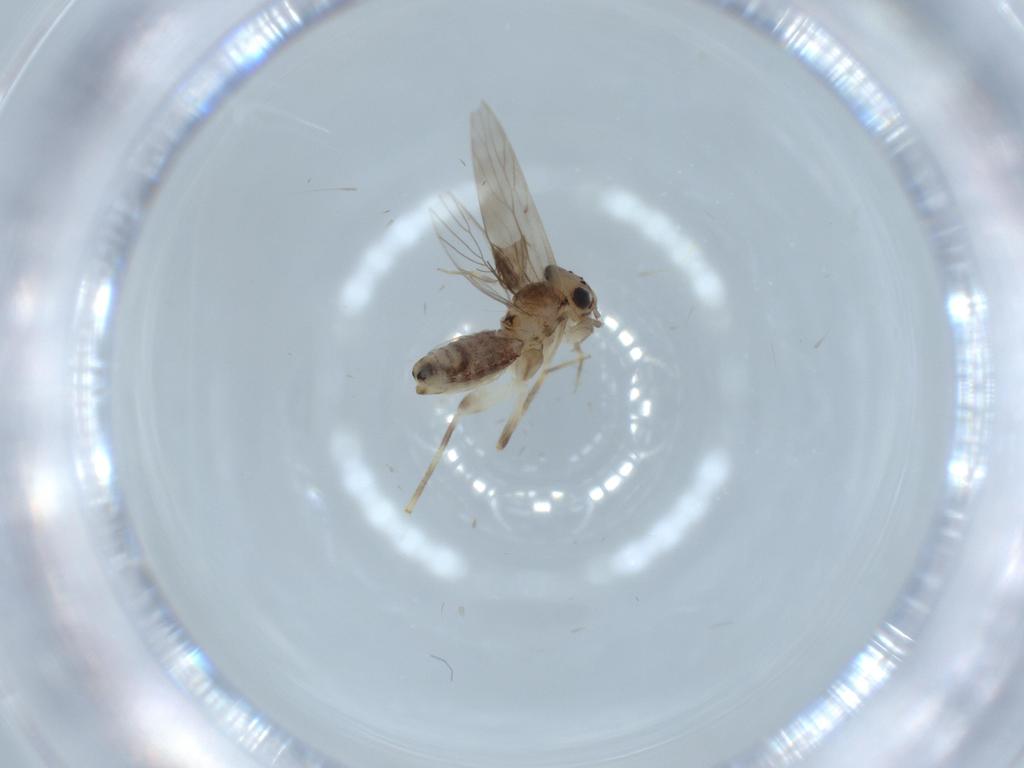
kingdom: Animalia
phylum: Arthropoda
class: Insecta
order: Psocodea
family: Lepidopsocidae
